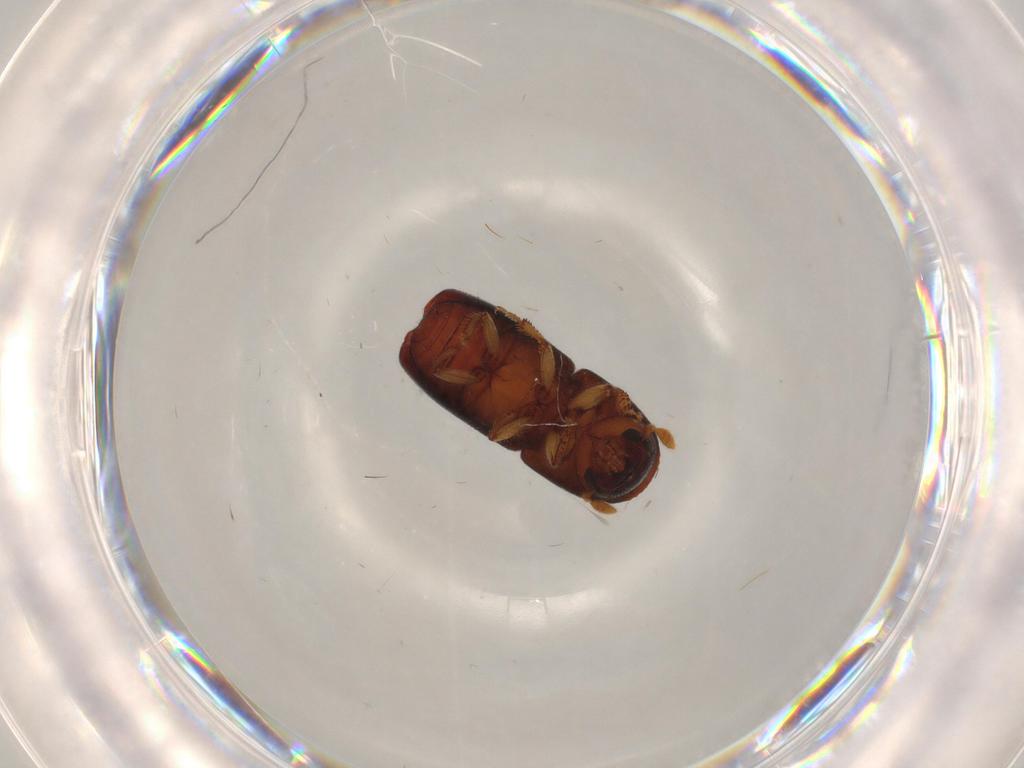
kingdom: Animalia
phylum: Arthropoda
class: Insecta
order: Coleoptera
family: Curculionidae
